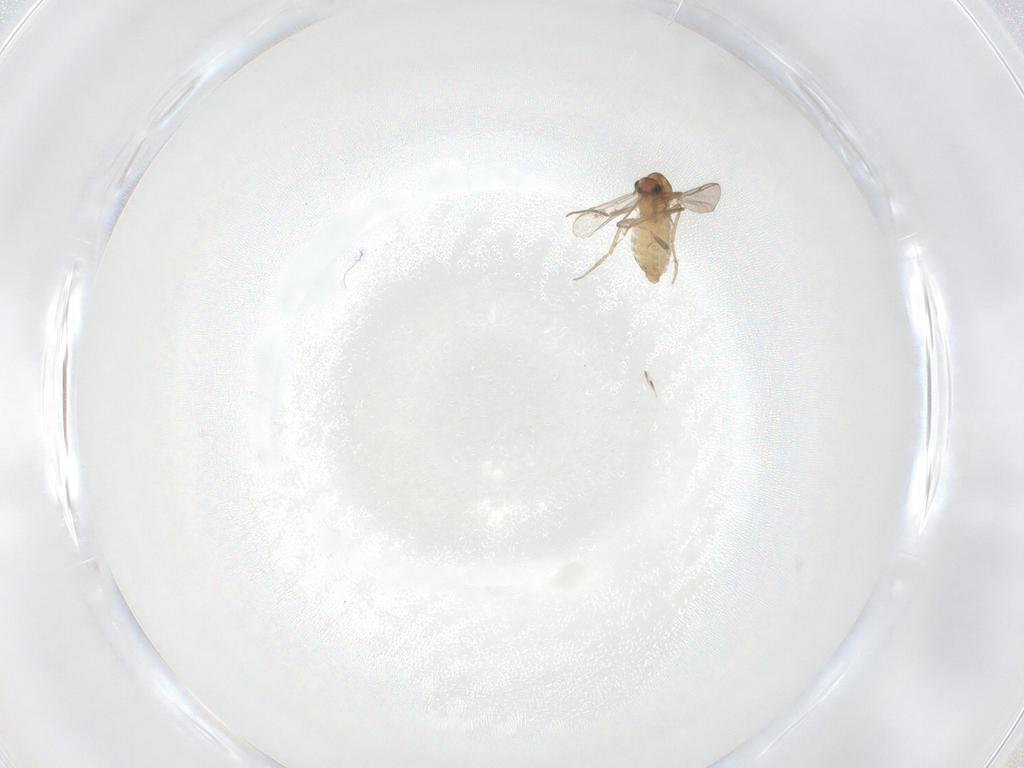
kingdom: Animalia
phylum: Arthropoda
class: Insecta
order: Diptera
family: Chironomidae
